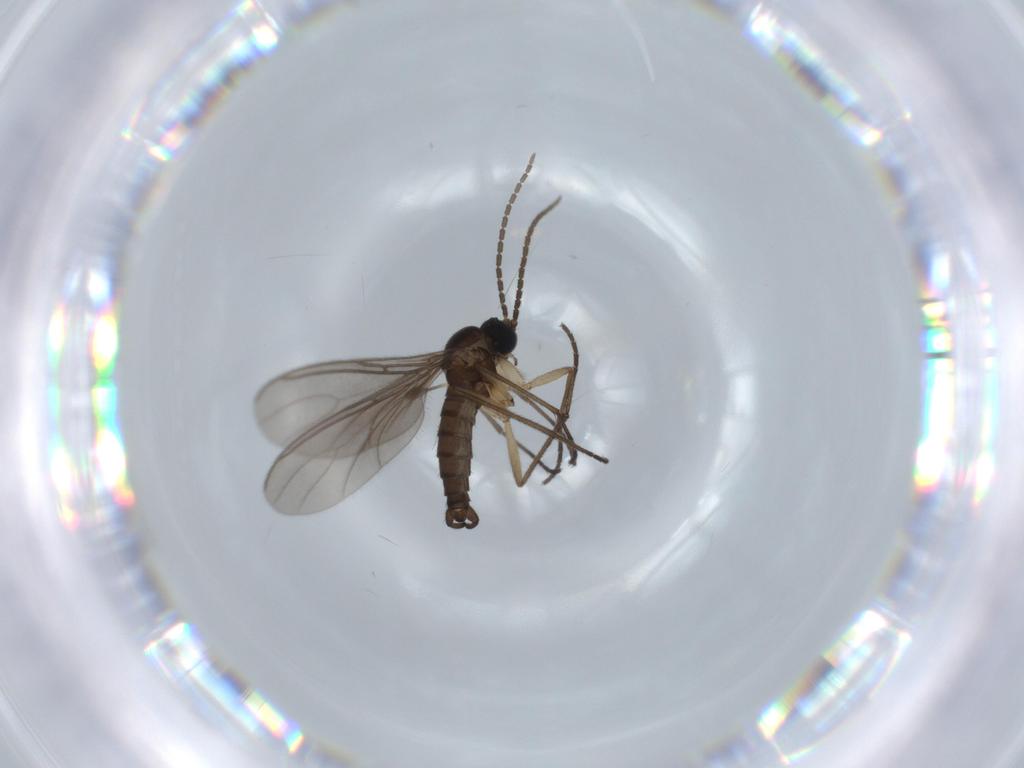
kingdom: Animalia
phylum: Arthropoda
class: Insecta
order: Diptera
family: Sciaridae
